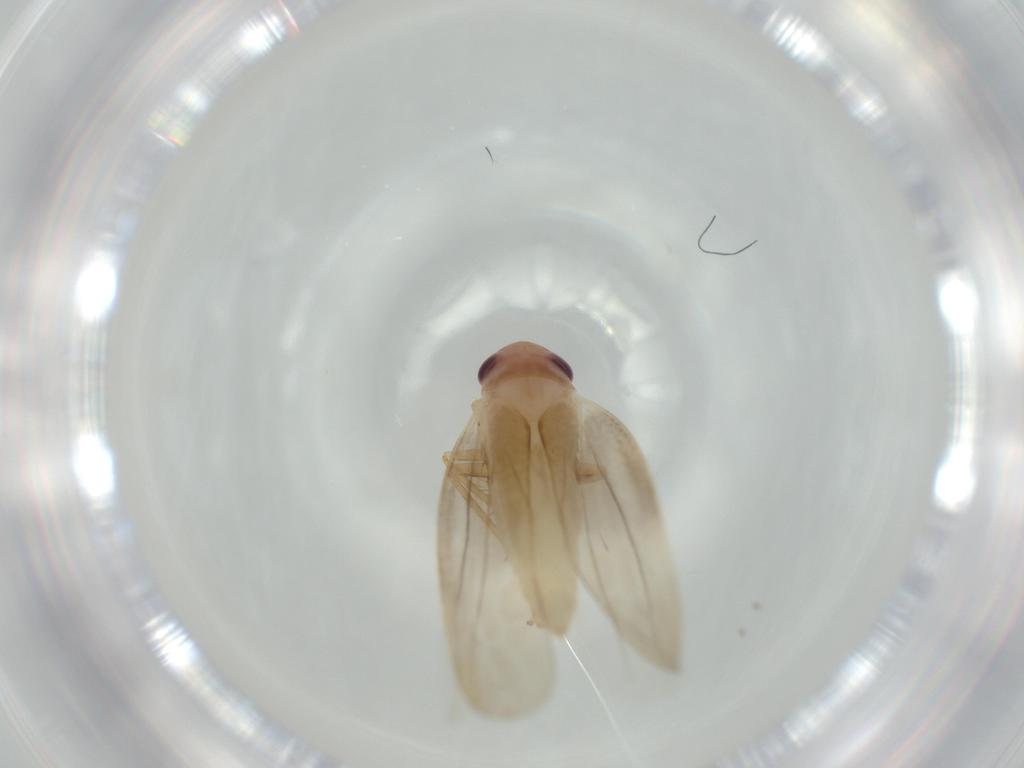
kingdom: Animalia
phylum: Arthropoda
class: Insecta
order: Hemiptera
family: Cicadellidae
